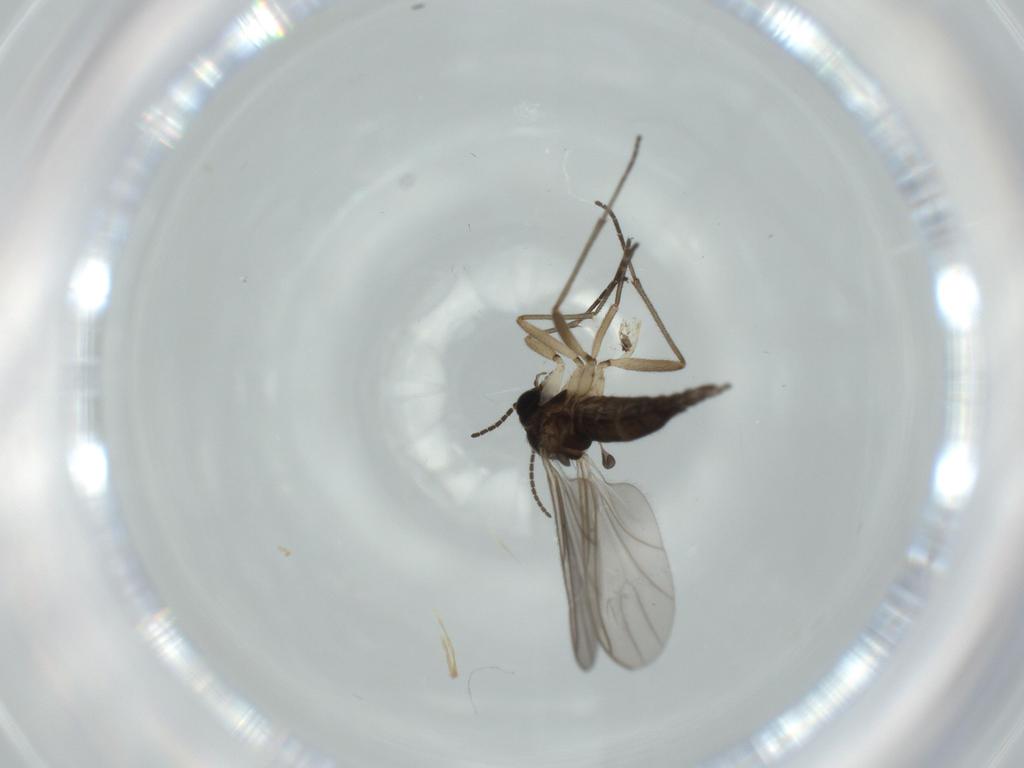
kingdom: Animalia
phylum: Arthropoda
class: Insecta
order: Diptera
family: Sciaridae
